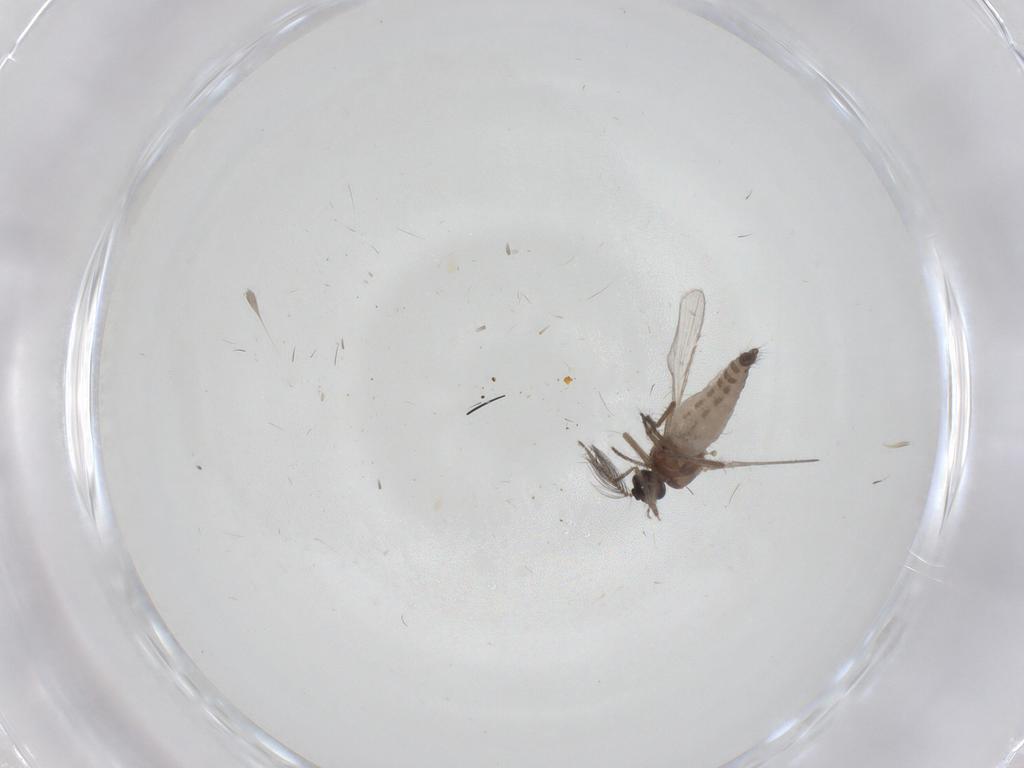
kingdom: Animalia
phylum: Arthropoda
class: Insecta
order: Diptera
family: Ceratopogonidae
